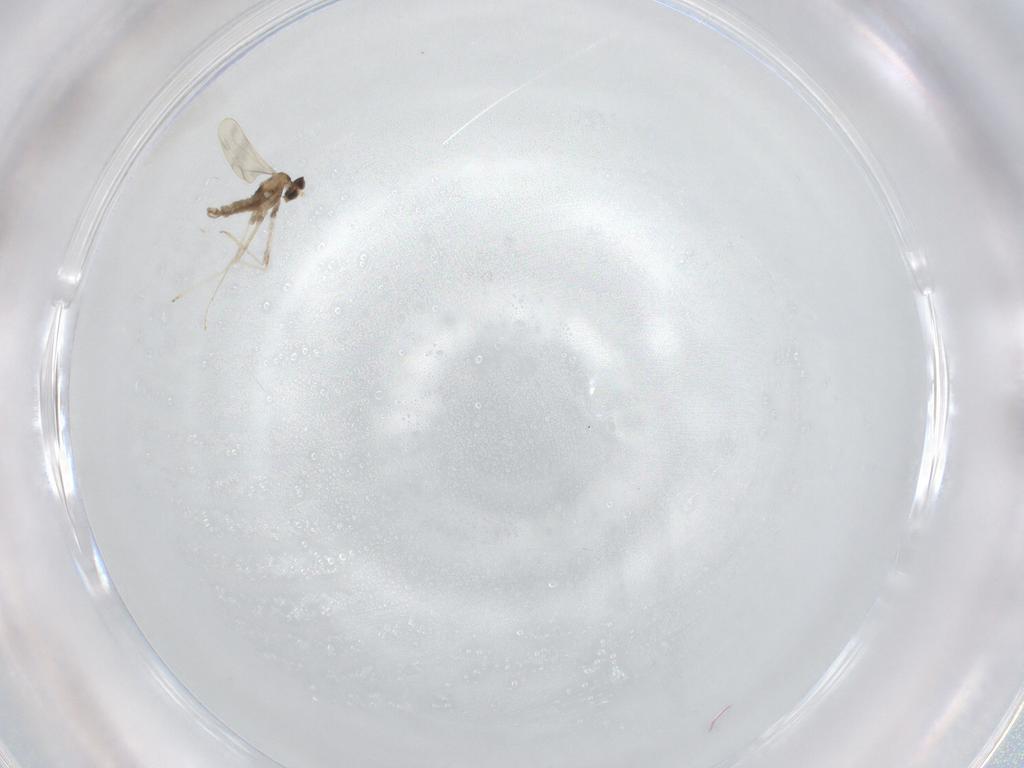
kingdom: Animalia
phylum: Arthropoda
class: Insecta
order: Diptera
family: Cecidomyiidae
